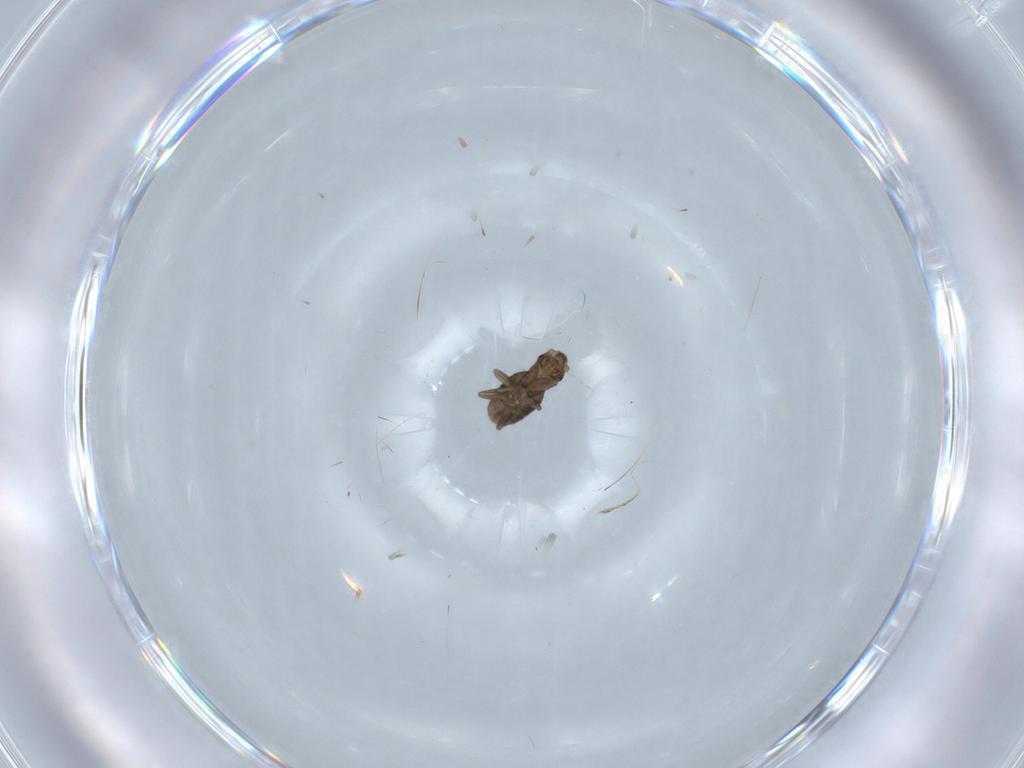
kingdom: Animalia
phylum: Arthropoda
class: Insecta
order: Diptera
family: Phoridae
